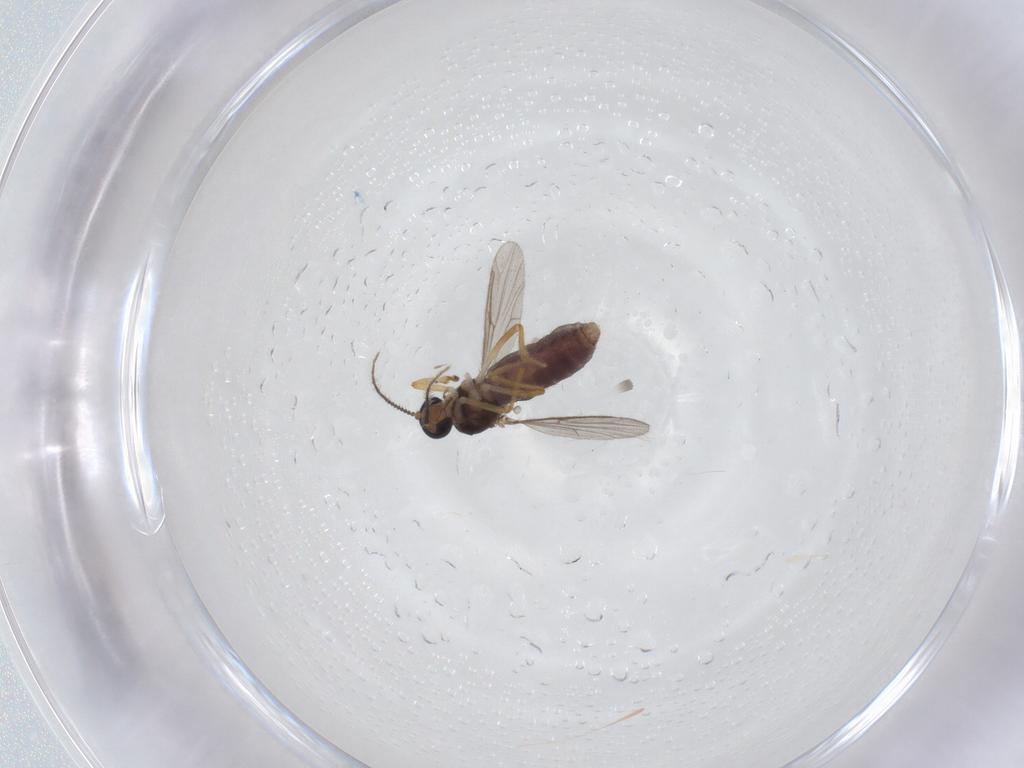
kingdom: Animalia
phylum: Arthropoda
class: Insecta
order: Diptera
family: Ceratopogonidae
